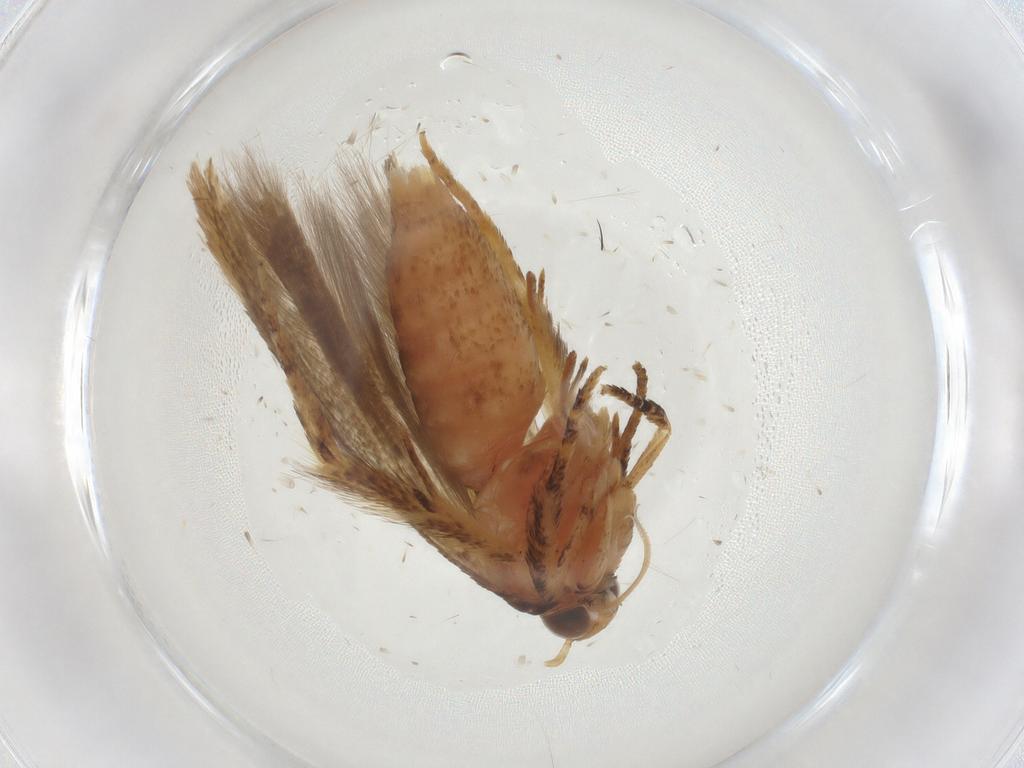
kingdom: Animalia
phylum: Arthropoda
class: Insecta
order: Lepidoptera
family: Gelechiidae
